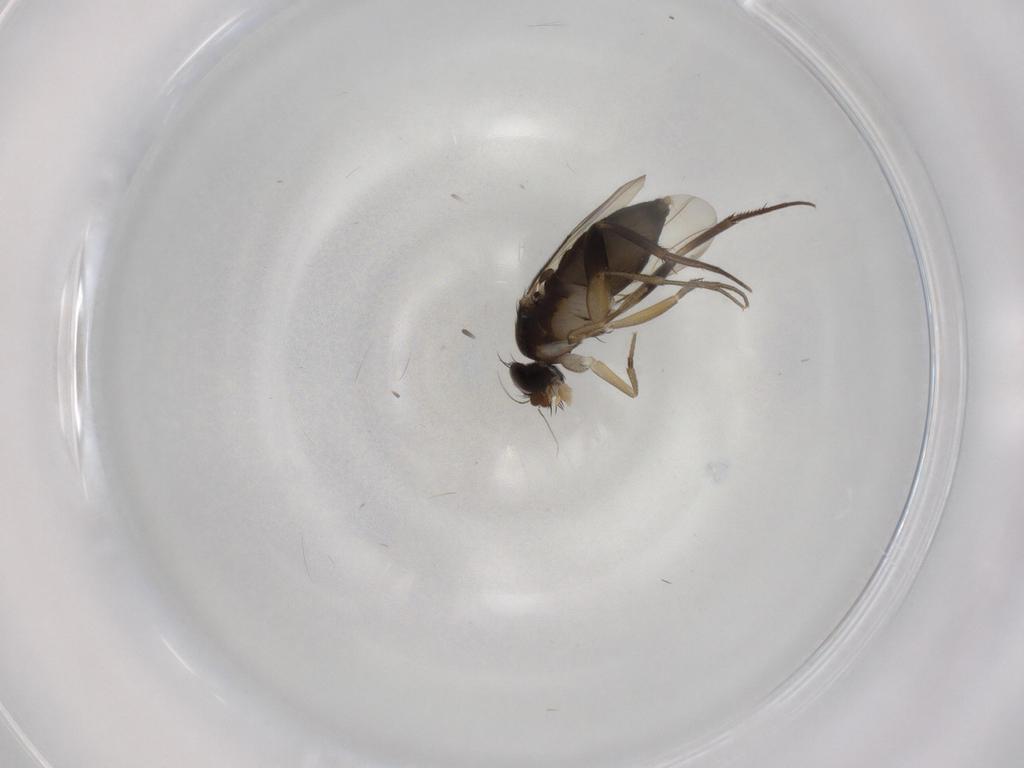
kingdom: Animalia
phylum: Arthropoda
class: Insecta
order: Diptera
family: Phoridae
